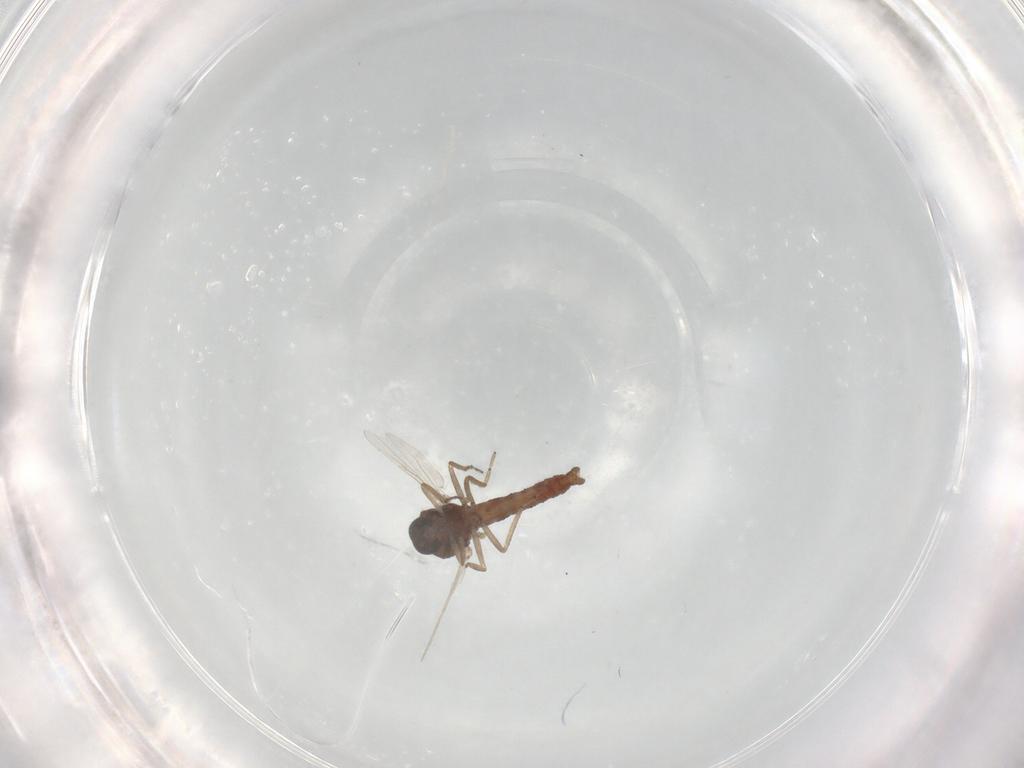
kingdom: Animalia
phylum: Arthropoda
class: Insecta
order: Diptera
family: Ceratopogonidae
